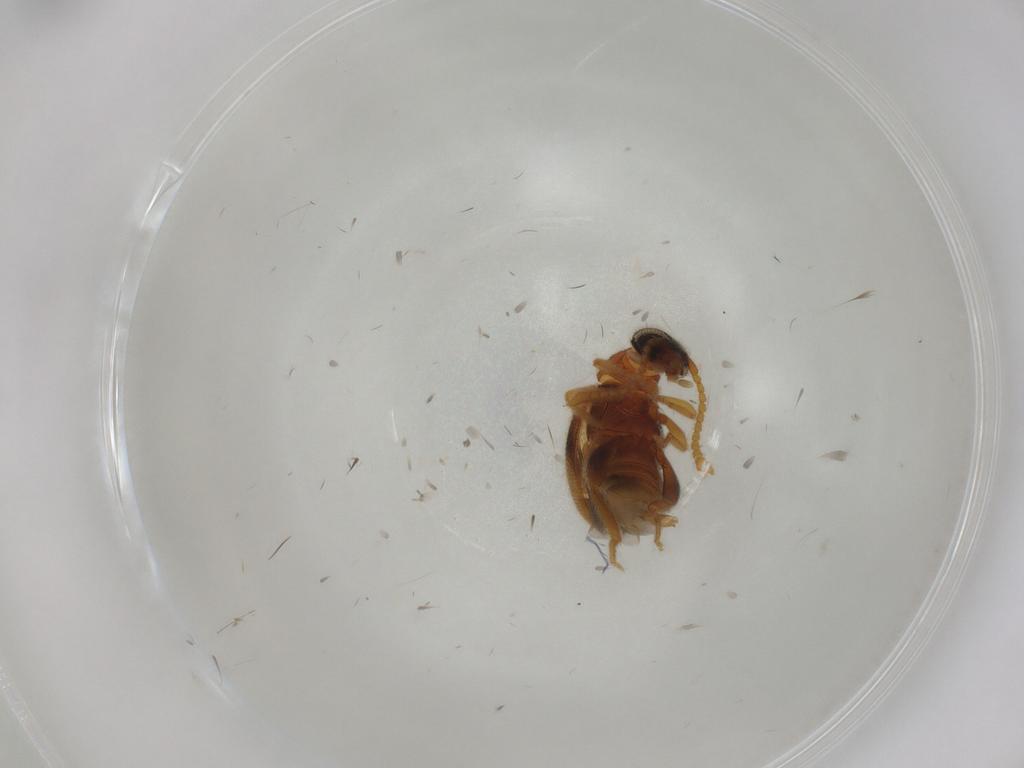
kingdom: Animalia
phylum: Arthropoda
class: Insecta
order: Coleoptera
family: Aderidae
